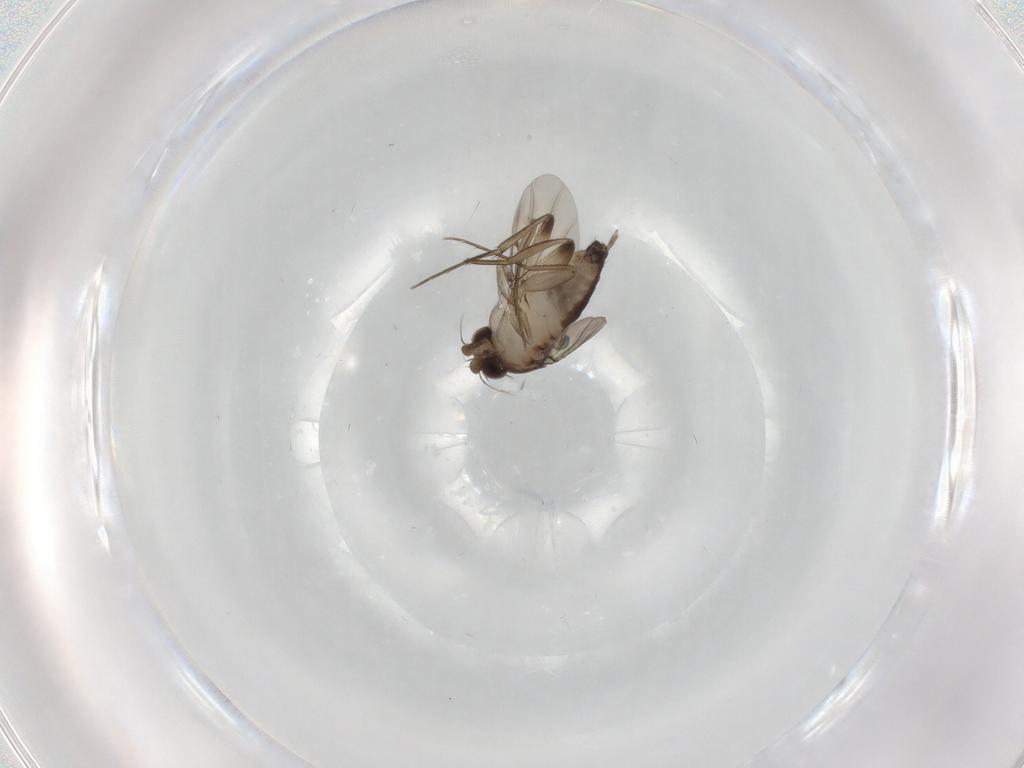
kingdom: Animalia
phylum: Arthropoda
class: Insecta
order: Diptera
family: Phoridae
